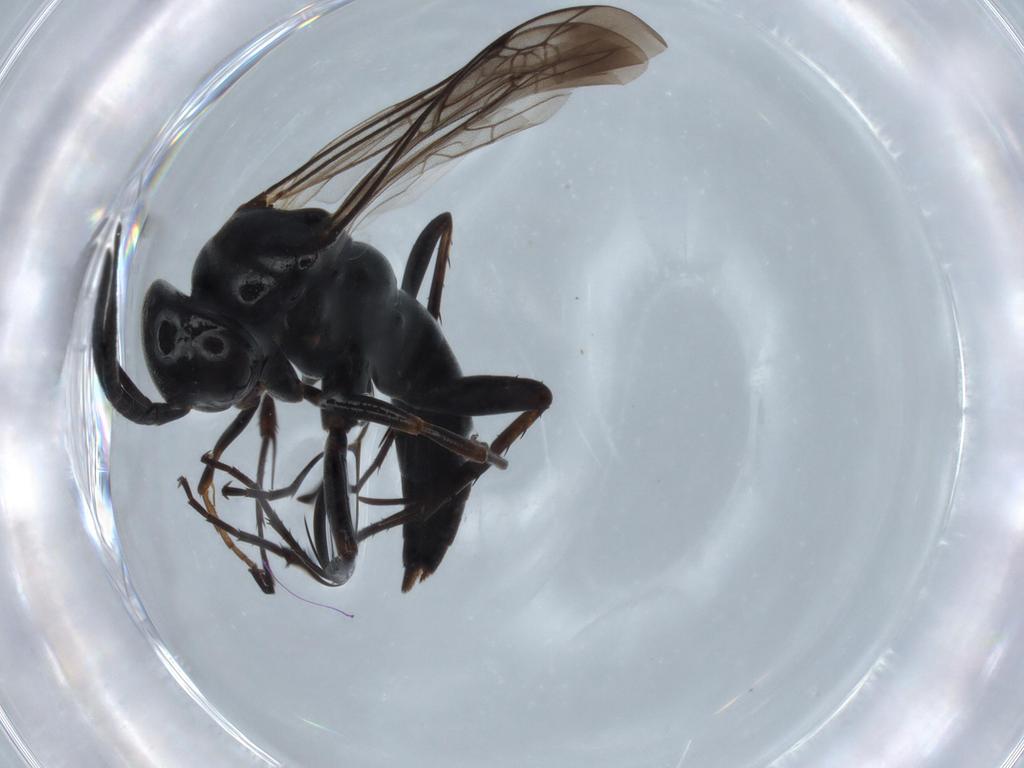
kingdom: Animalia
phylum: Arthropoda
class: Insecta
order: Hymenoptera
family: Pompilidae
